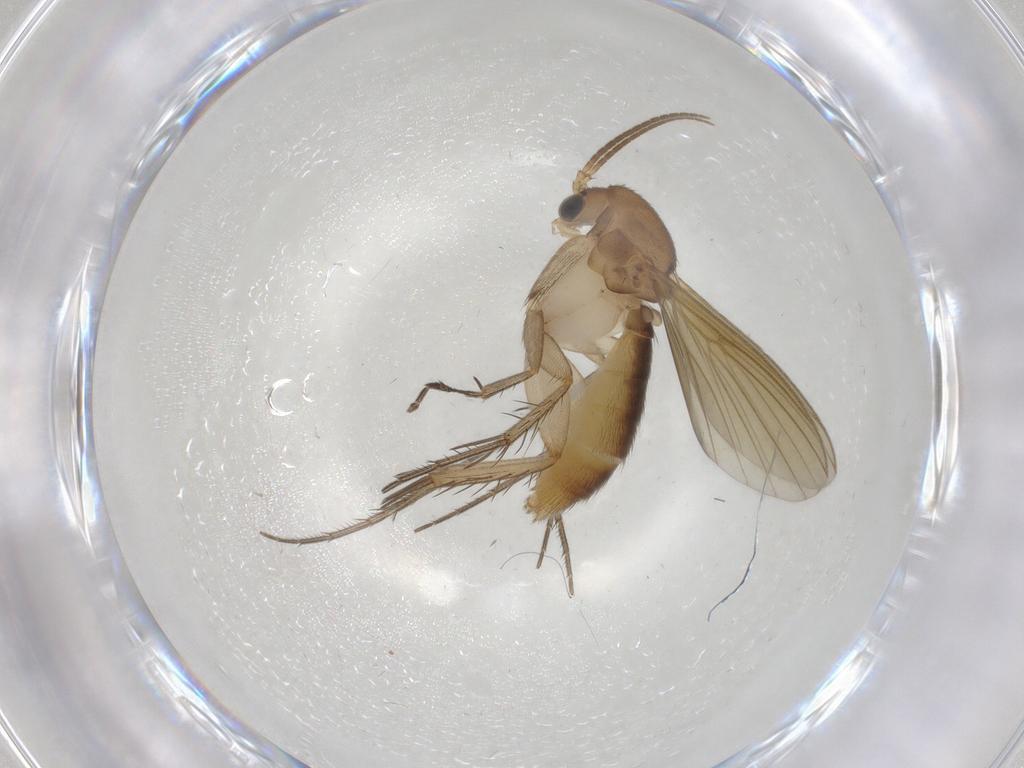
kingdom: Animalia
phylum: Arthropoda
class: Insecta
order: Diptera
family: Mycetophilidae
